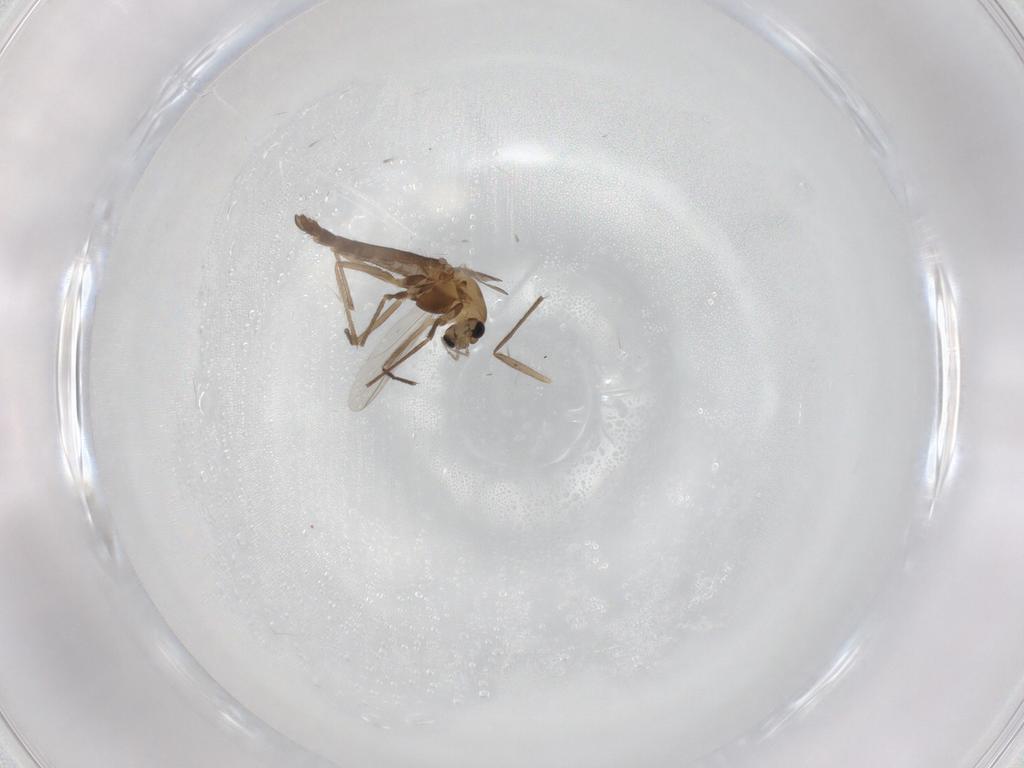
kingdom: Animalia
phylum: Arthropoda
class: Insecta
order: Diptera
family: Chironomidae
